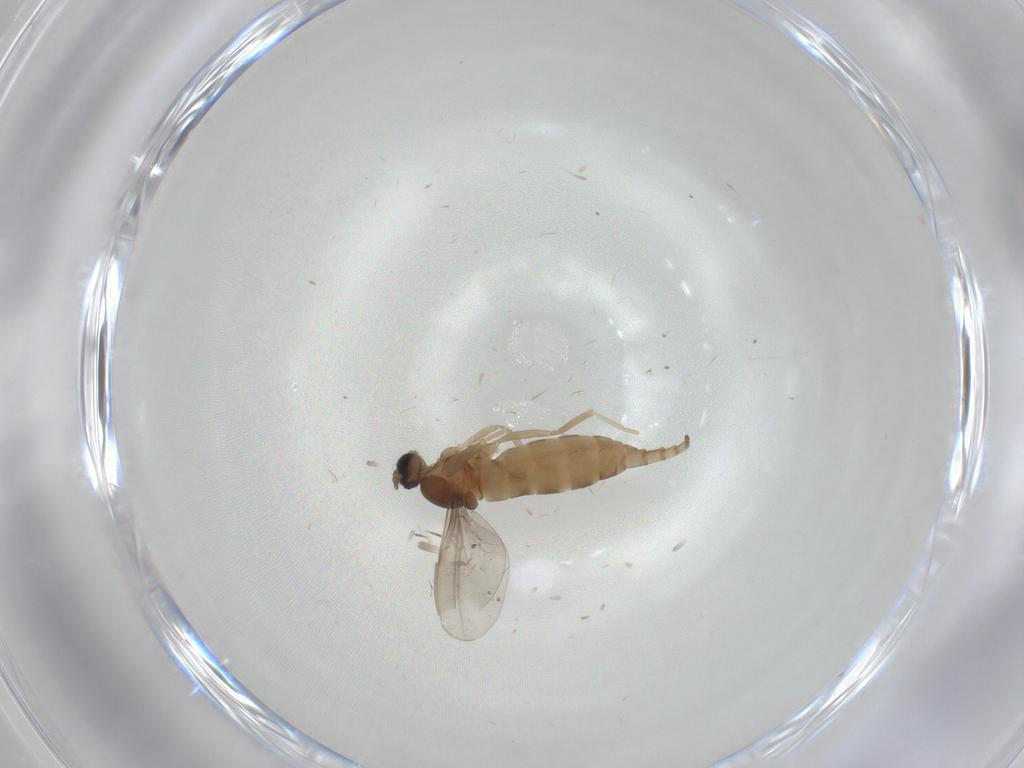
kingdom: Animalia
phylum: Arthropoda
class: Insecta
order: Diptera
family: Cecidomyiidae
